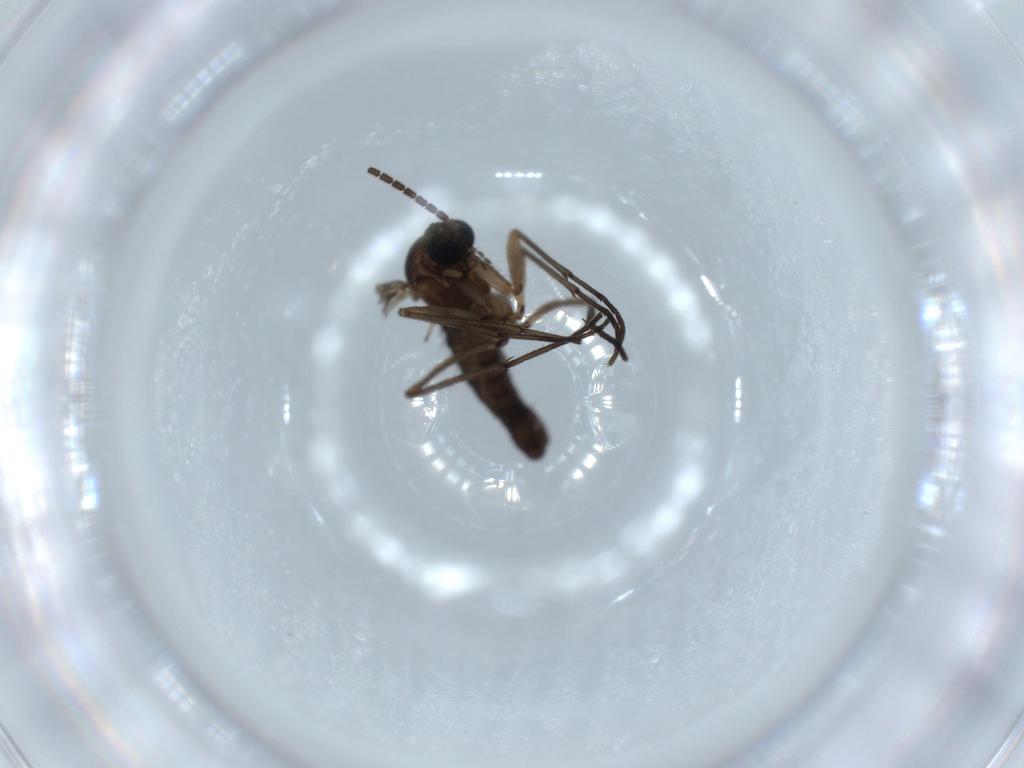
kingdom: Animalia
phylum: Arthropoda
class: Insecta
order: Diptera
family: Sciaridae
